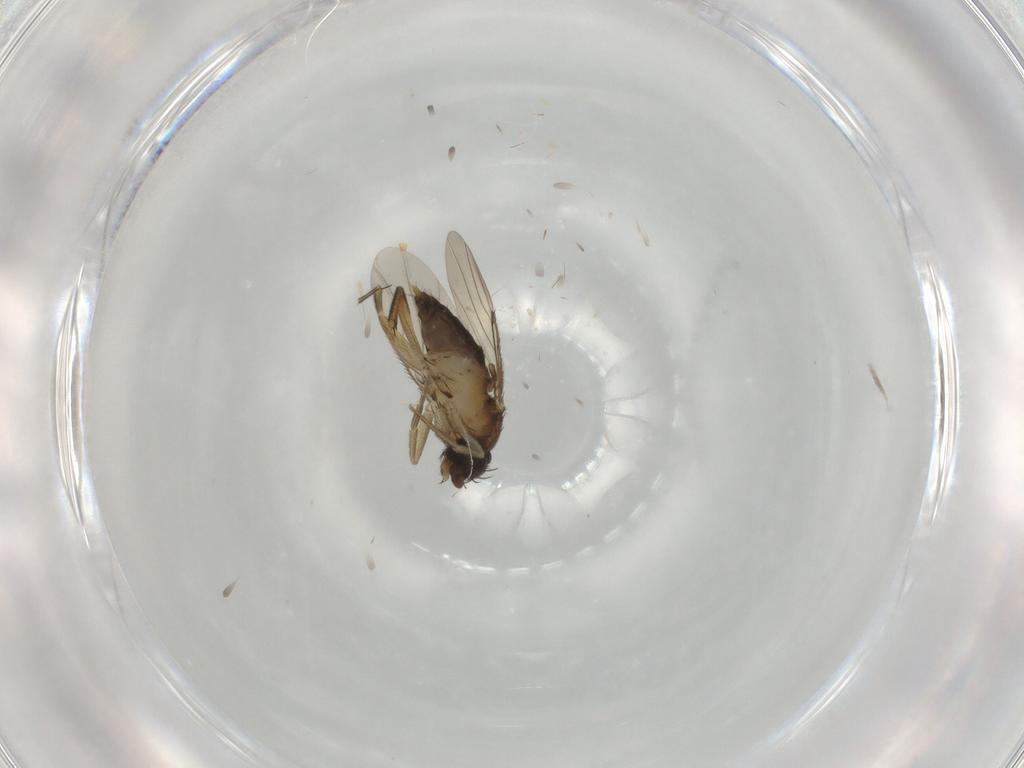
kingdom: Animalia
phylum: Arthropoda
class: Insecta
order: Diptera
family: Phoridae
